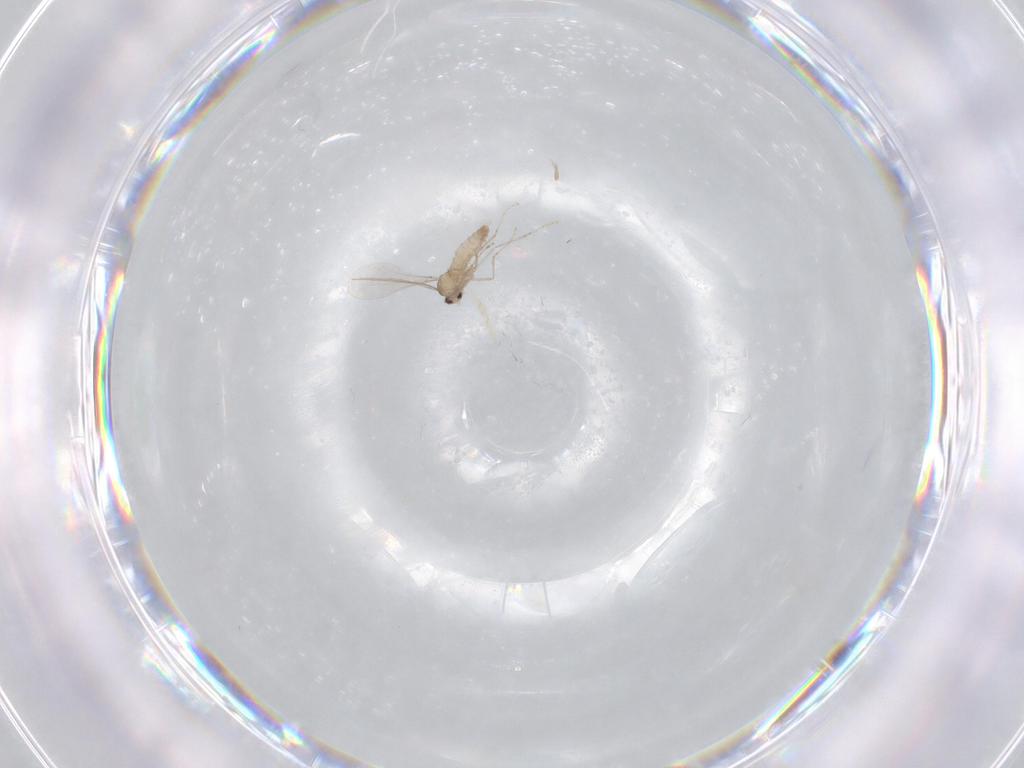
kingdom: Animalia
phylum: Arthropoda
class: Insecta
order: Diptera
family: Cecidomyiidae
